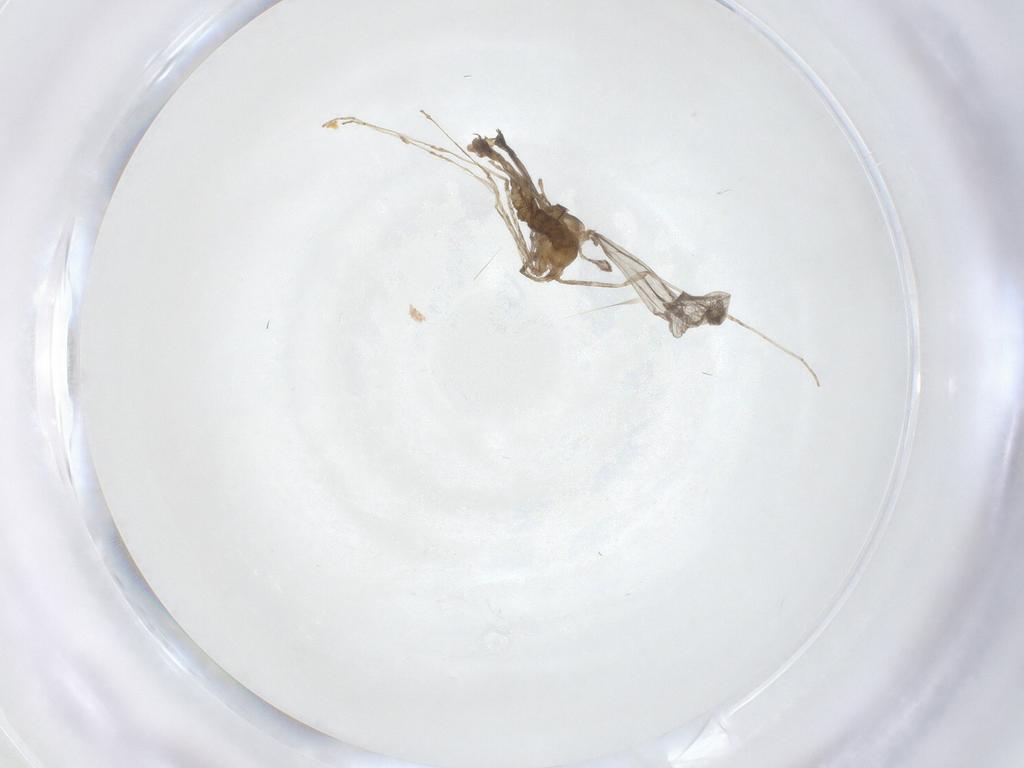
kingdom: Animalia
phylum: Arthropoda
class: Insecta
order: Diptera
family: Cecidomyiidae
